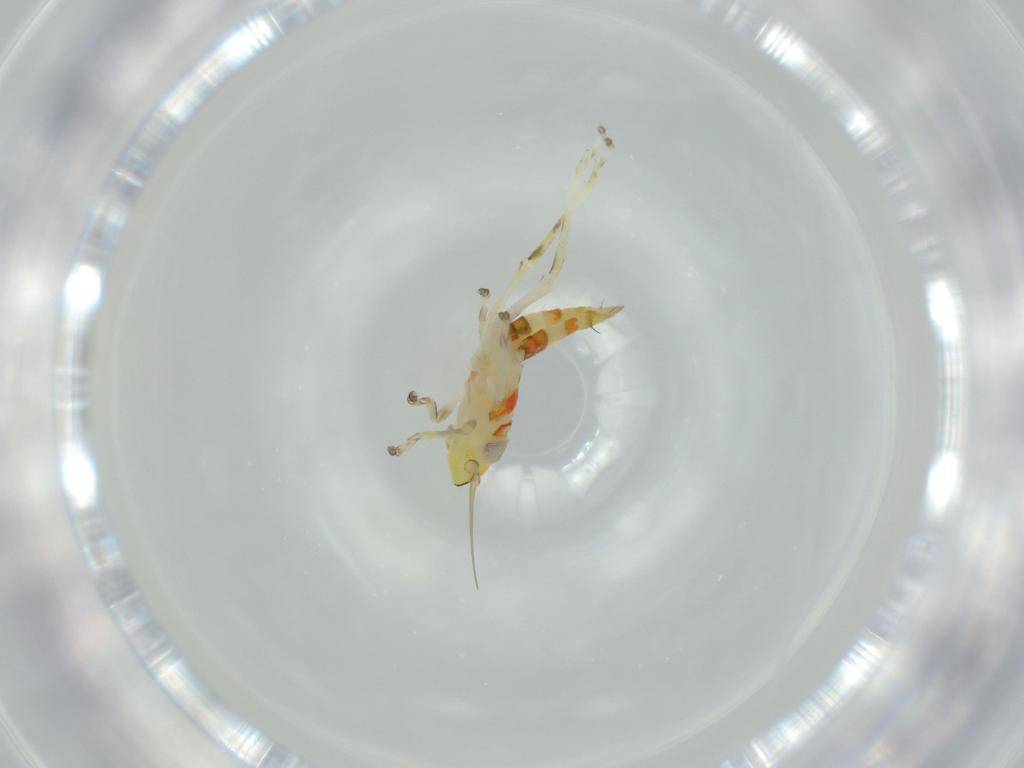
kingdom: Animalia
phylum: Arthropoda
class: Insecta
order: Hemiptera
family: Cicadellidae
